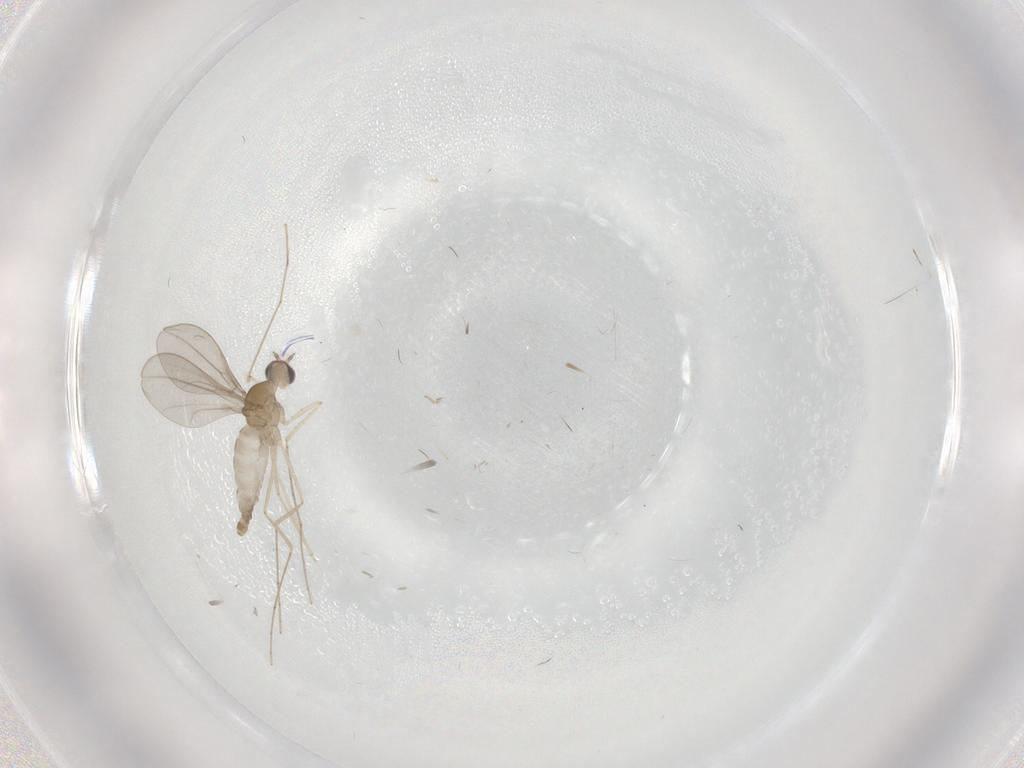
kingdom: Animalia
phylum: Arthropoda
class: Insecta
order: Diptera
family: Cecidomyiidae
